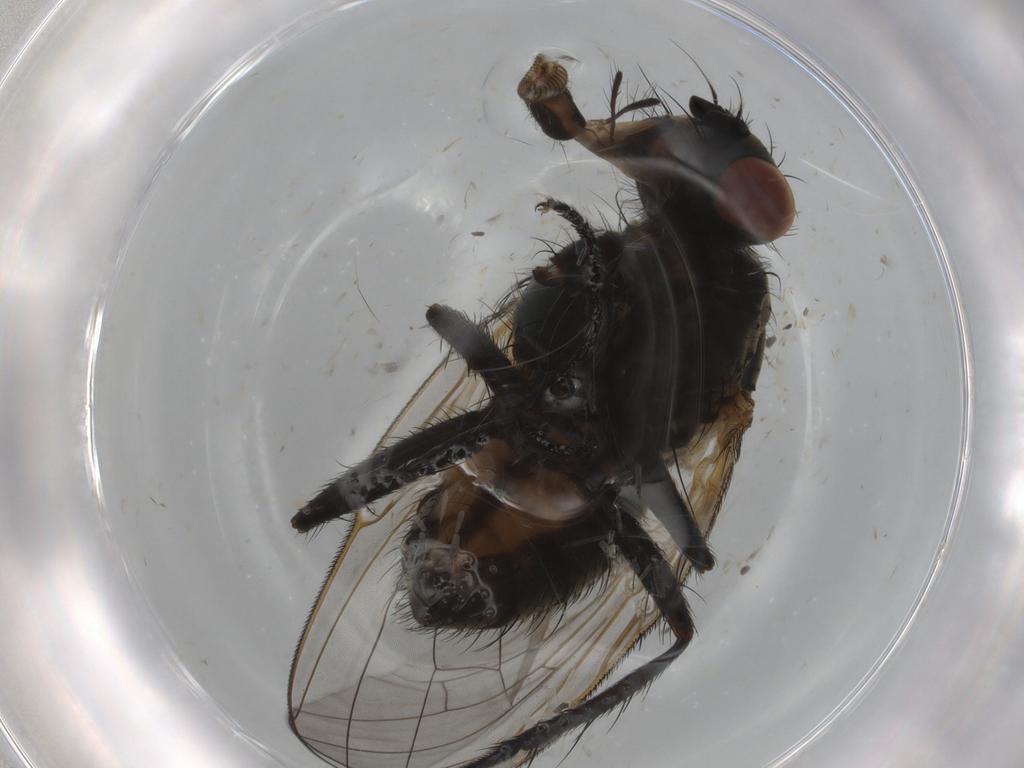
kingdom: Animalia
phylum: Arthropoda
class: Insecta
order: Diptera
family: Anthomyiidae
